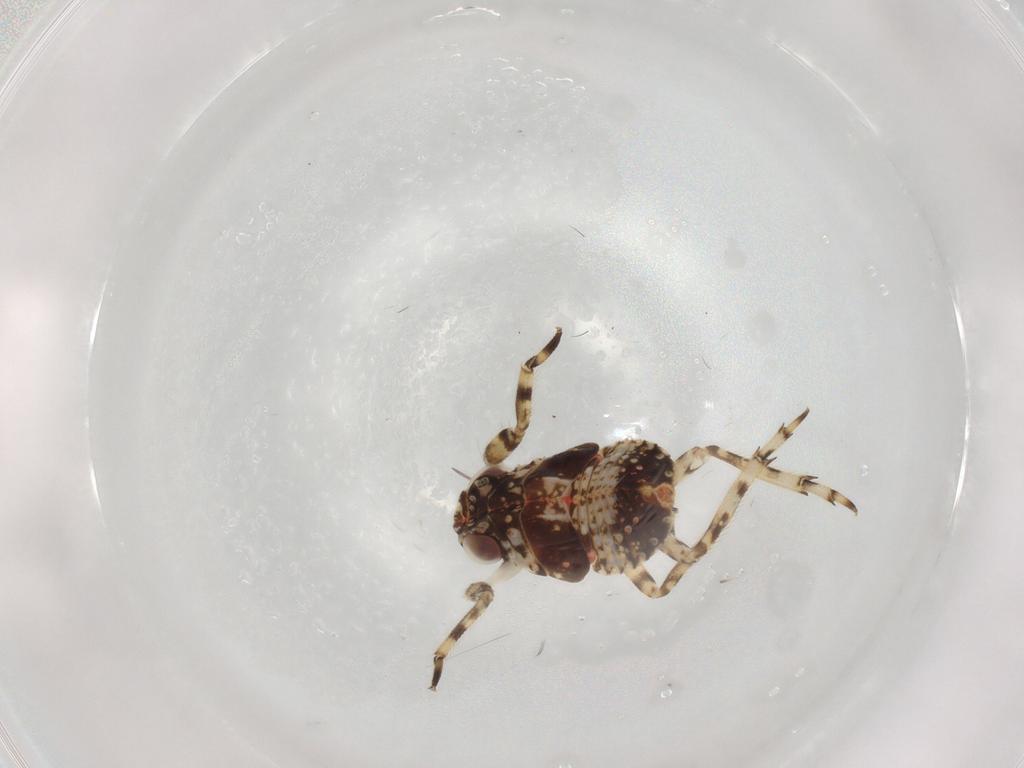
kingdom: Animalia
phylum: Arthropoda
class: Insecta
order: Hemiptera
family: Caliscelidae
